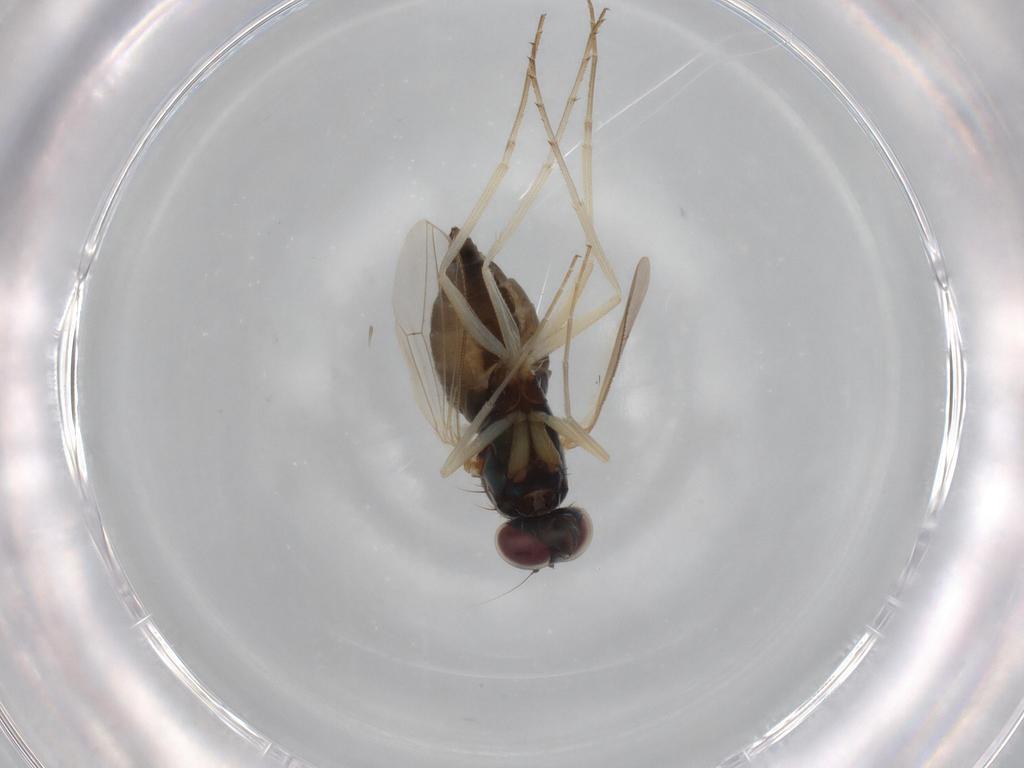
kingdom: Animalia
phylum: Arthropoda
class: Insecta
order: Diptera
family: Dolichopodidae
